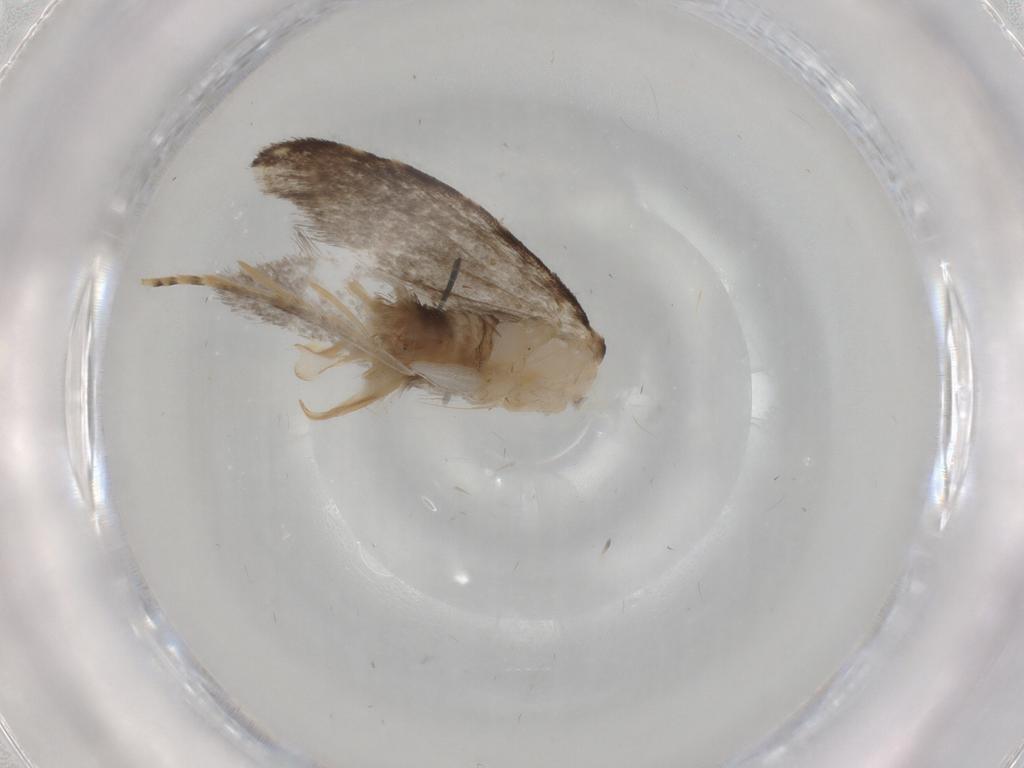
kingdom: Animalia
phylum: Arthropoda
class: Insecta
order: Lepidoptera
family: Tineidae
